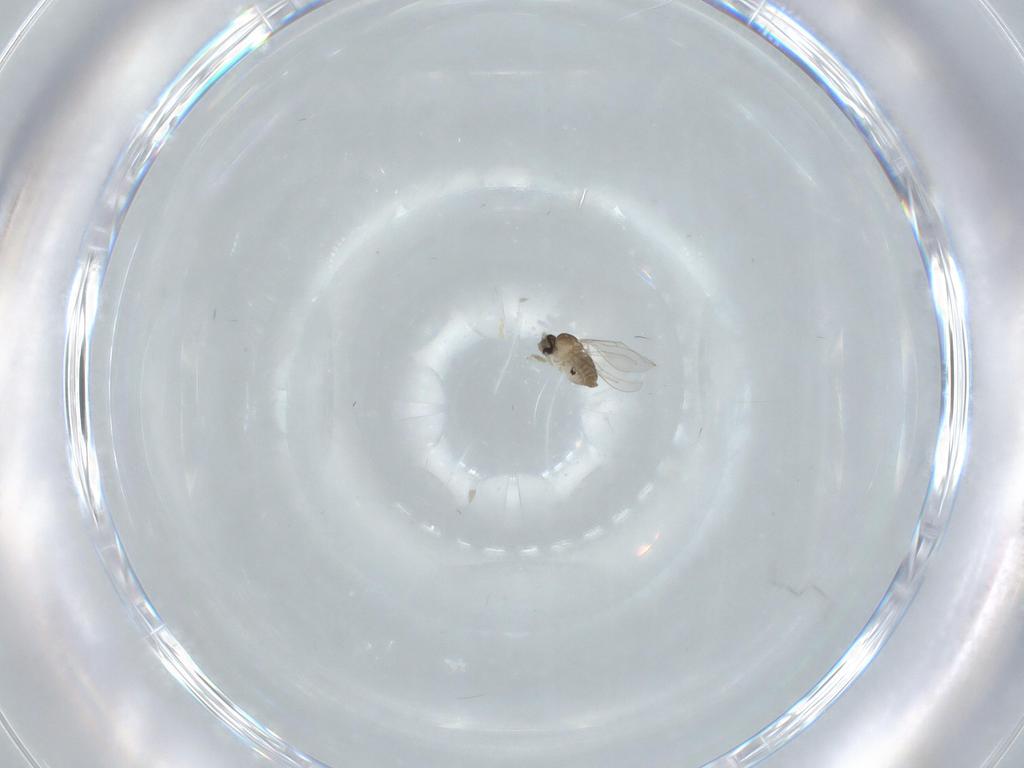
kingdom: Animalia
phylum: Arthropoda
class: Insecta
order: Diptera
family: Cecidomyiidae
